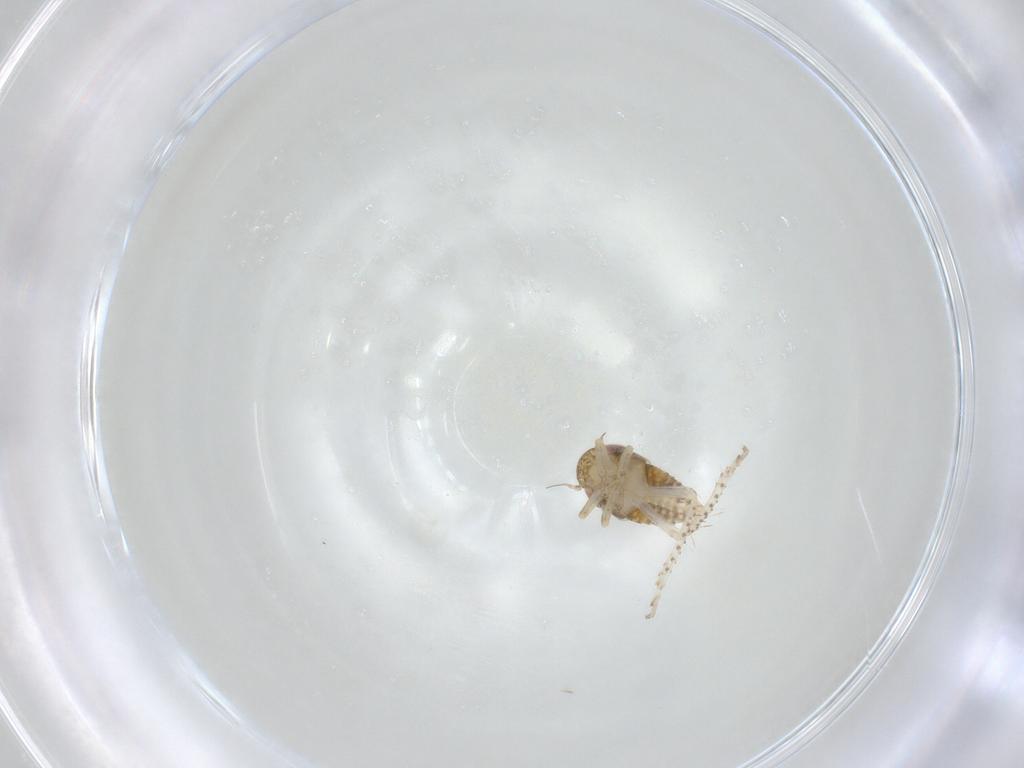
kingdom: Animalia
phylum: Arthropoda
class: Insecta
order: Hemiptera
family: Cicadellidae
